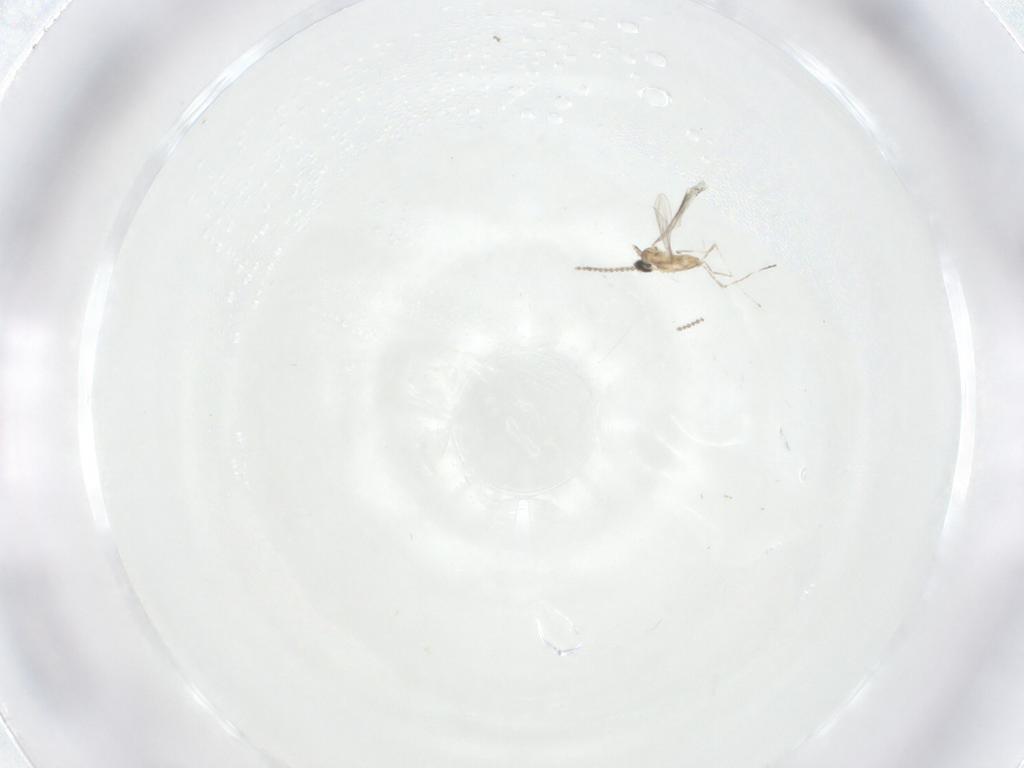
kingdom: Animalia
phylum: Arthropoda
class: Insecta
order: Diptera
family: Cecidomyiidae
